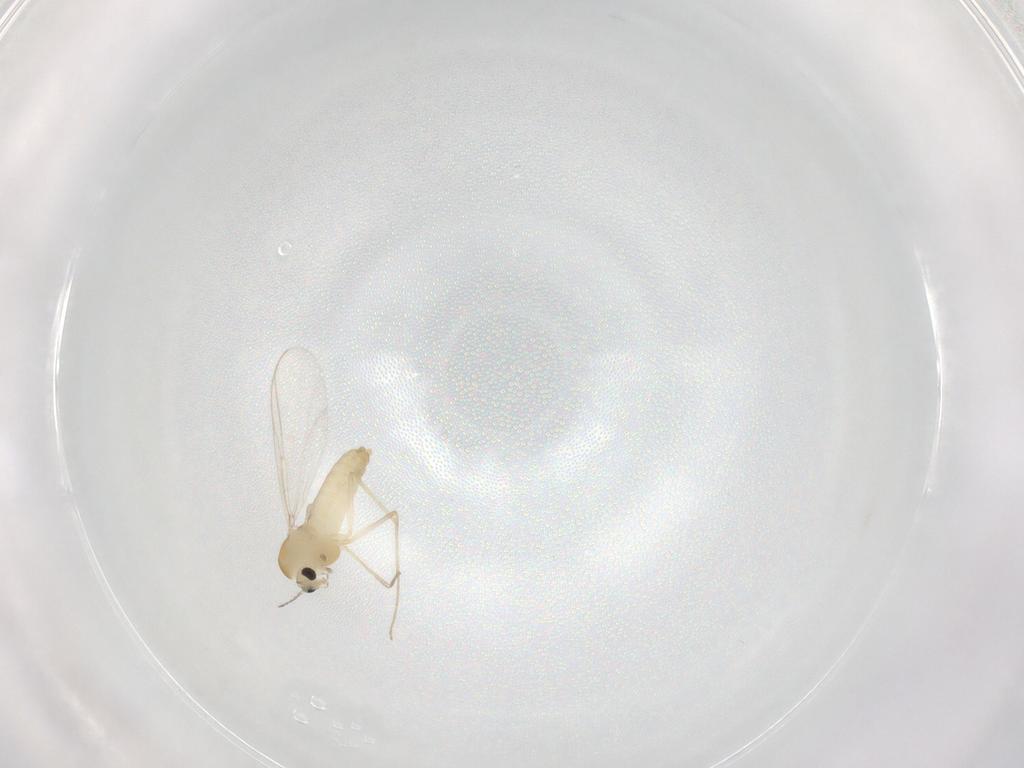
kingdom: Animalia
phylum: Arthropoda
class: Insecta
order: Diptera
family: Chironomidae
